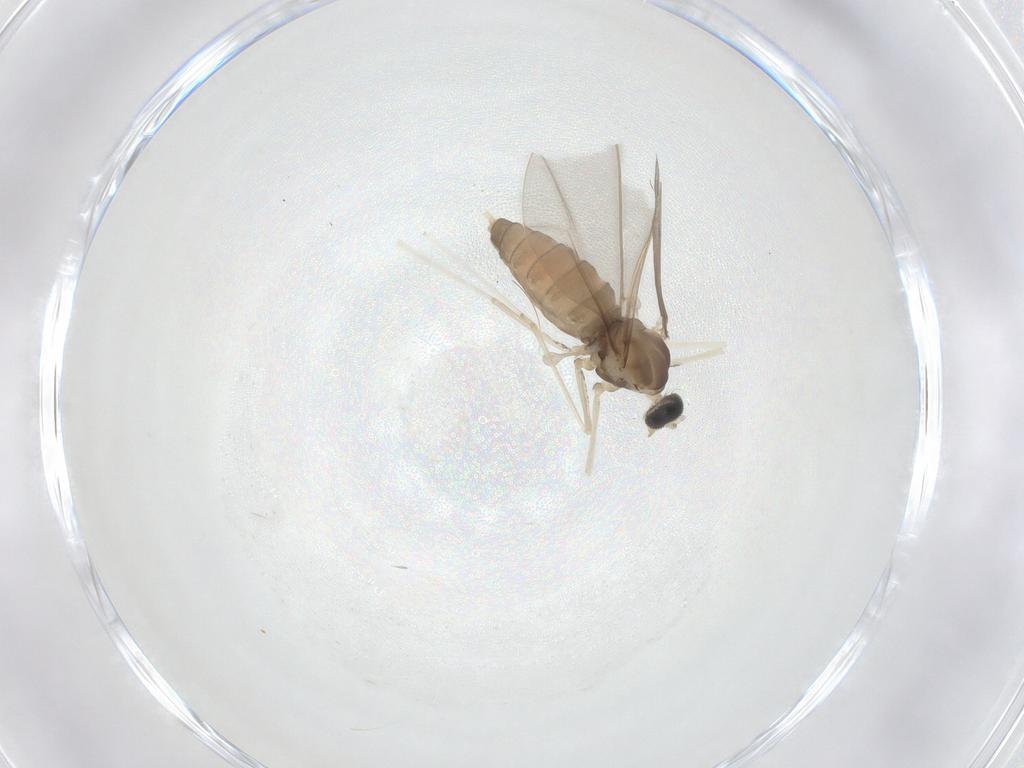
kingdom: Animalia
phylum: Arthropoda
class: Insecta
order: Diptera
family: Cecidomyiidae
